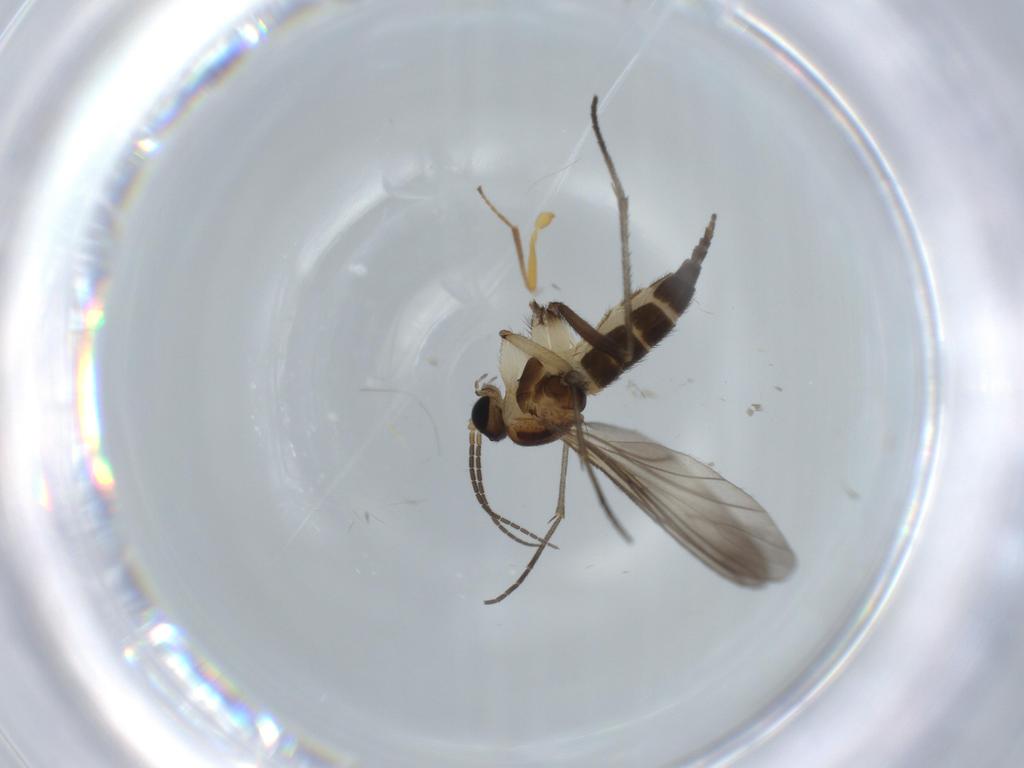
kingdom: Animalia
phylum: Arthropoda
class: Insecta
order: Diptera
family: Sciaridae
